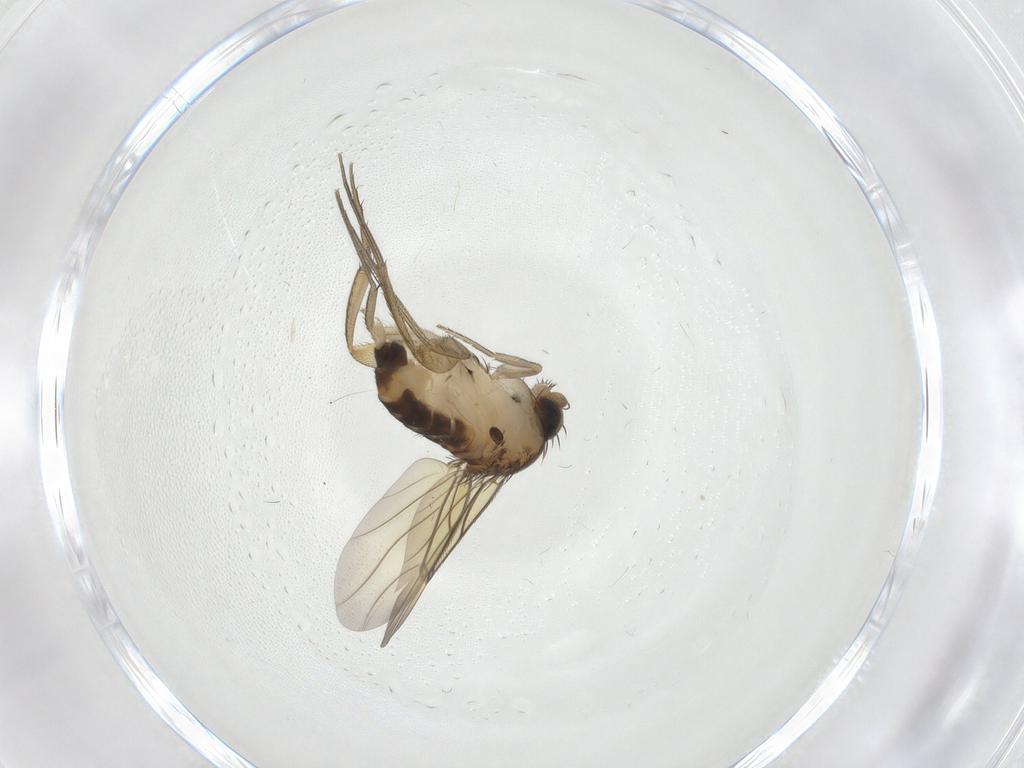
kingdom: Animalia
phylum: Arthropoda
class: Insecta
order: Diptera
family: Phoridae
